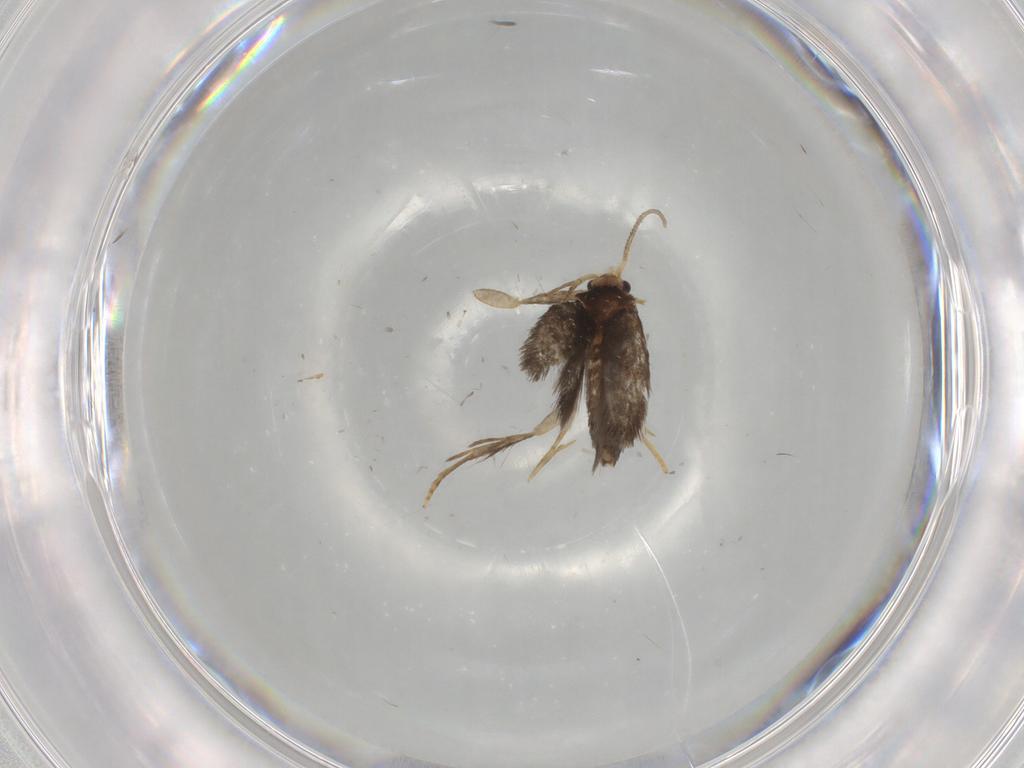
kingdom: Animalia
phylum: Arthropoda
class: Insecta
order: Lepidoptera
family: Nepticulidae
